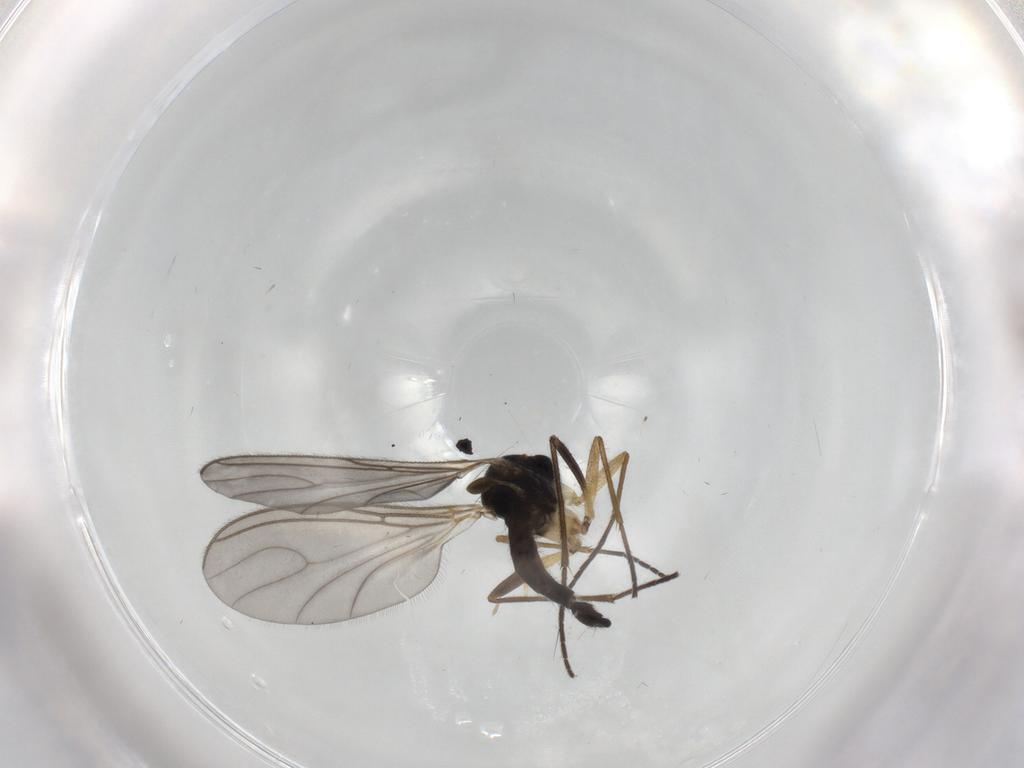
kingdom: Animalia
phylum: Arthropoda
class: Insecta
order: Diptera
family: Sciaridae
